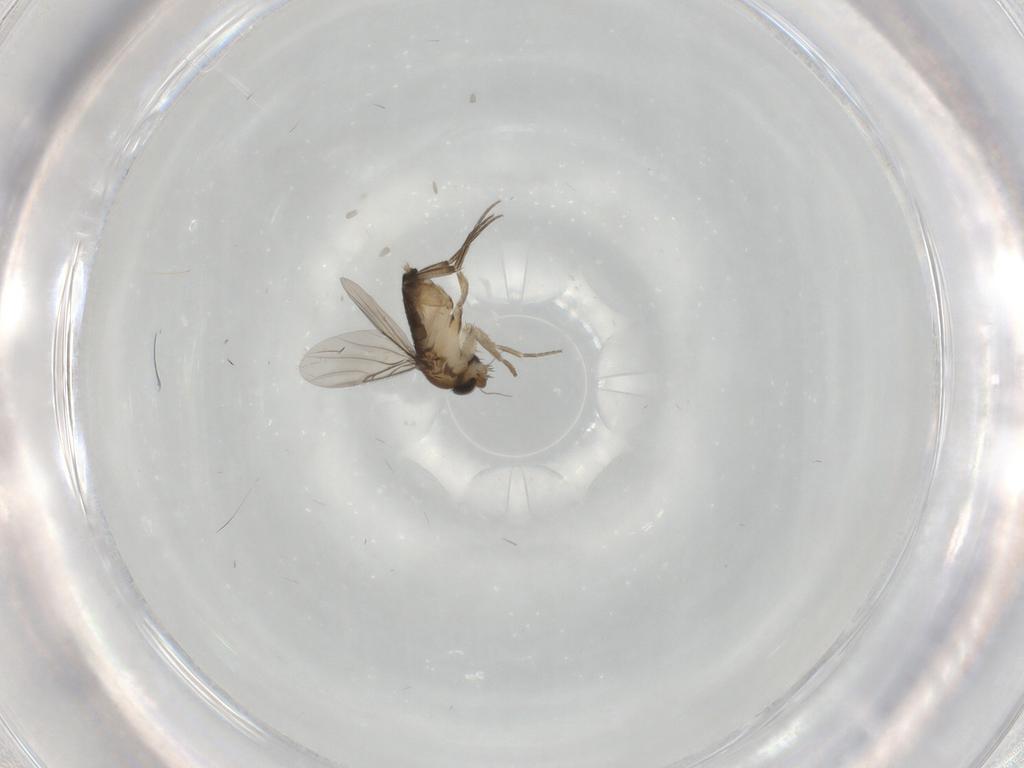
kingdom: Animalia
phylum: Arthropoda
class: Insecta
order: Diptera
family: Phoridae
